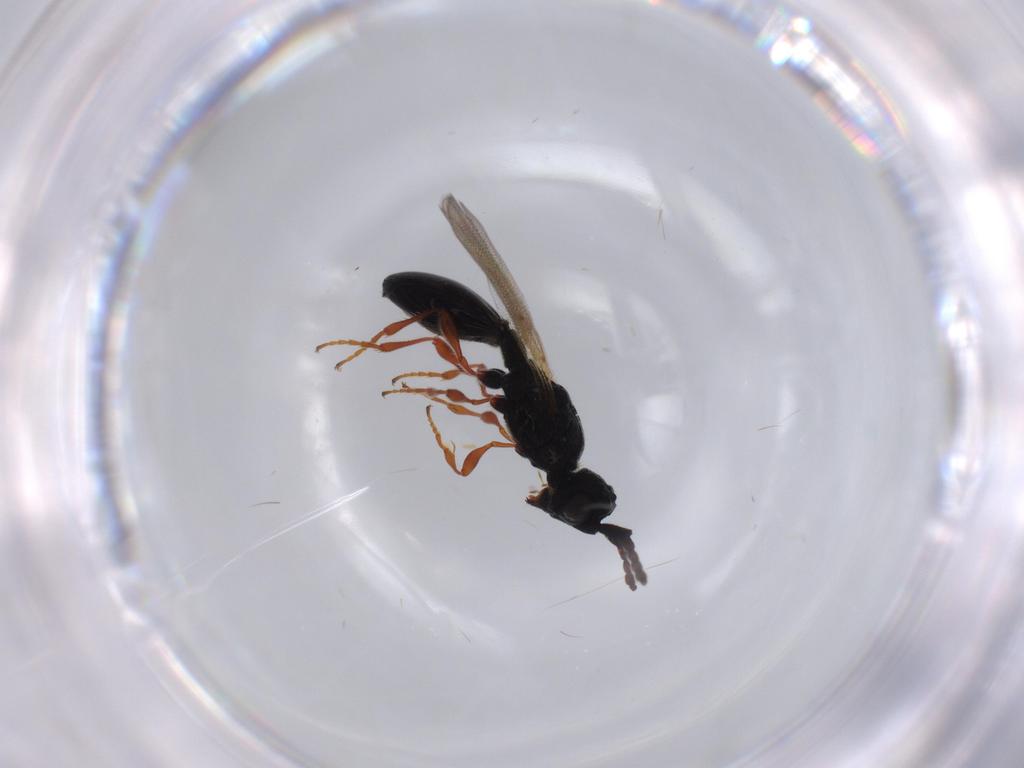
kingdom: Animalia
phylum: Arthropoda
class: Insecta
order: Hymenoptera
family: Diapriidae
